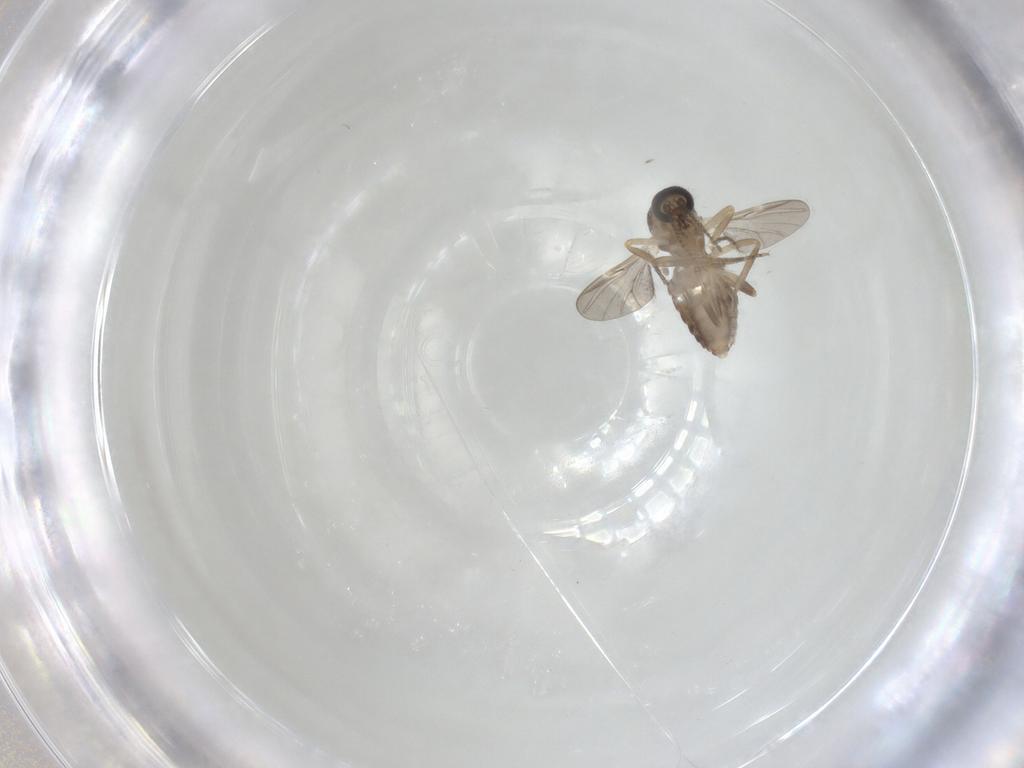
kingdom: Animalia
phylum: Arthropoda
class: Insecta
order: Diptera
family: Ceratopogonidae
